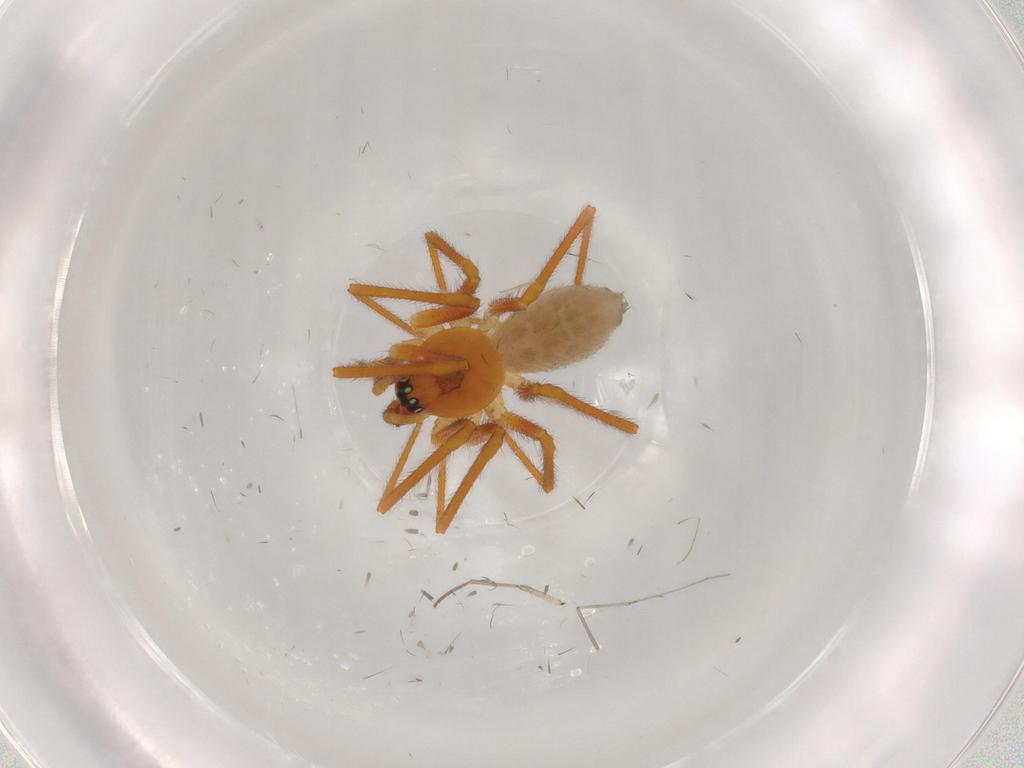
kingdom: Animalia
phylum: Arthropoda
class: Arachnida
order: Araneae
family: Linyphiidae
